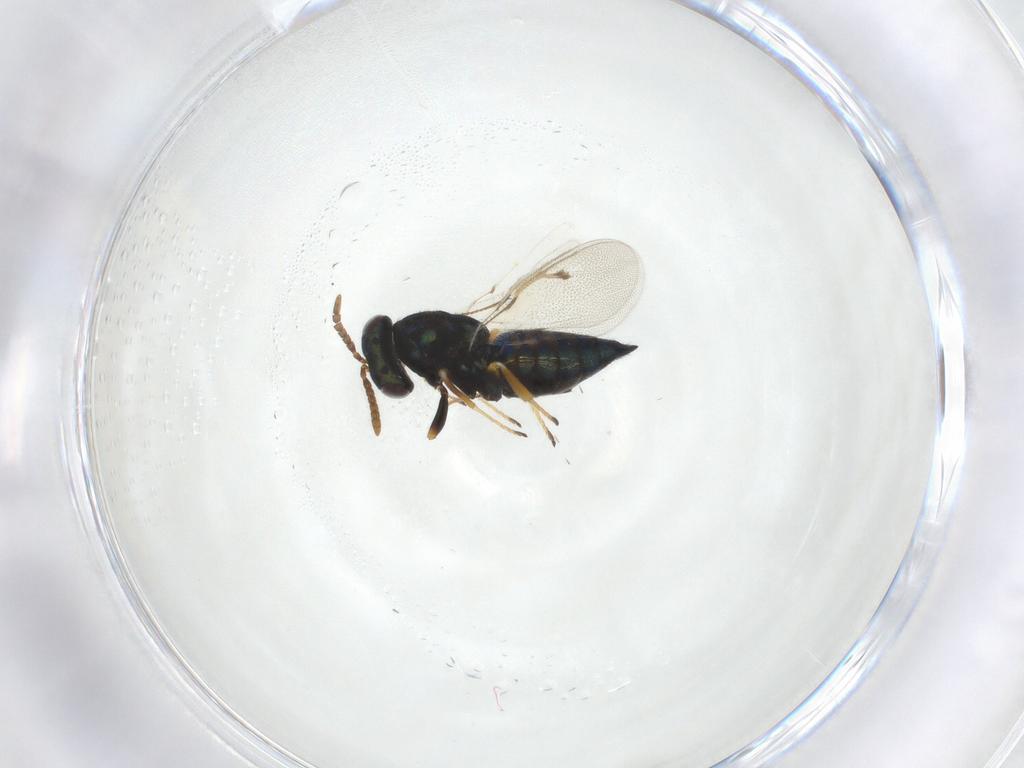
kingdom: Animalia
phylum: Arthropoda
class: Insecta
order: Hymenoptera
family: Pteromalidae
